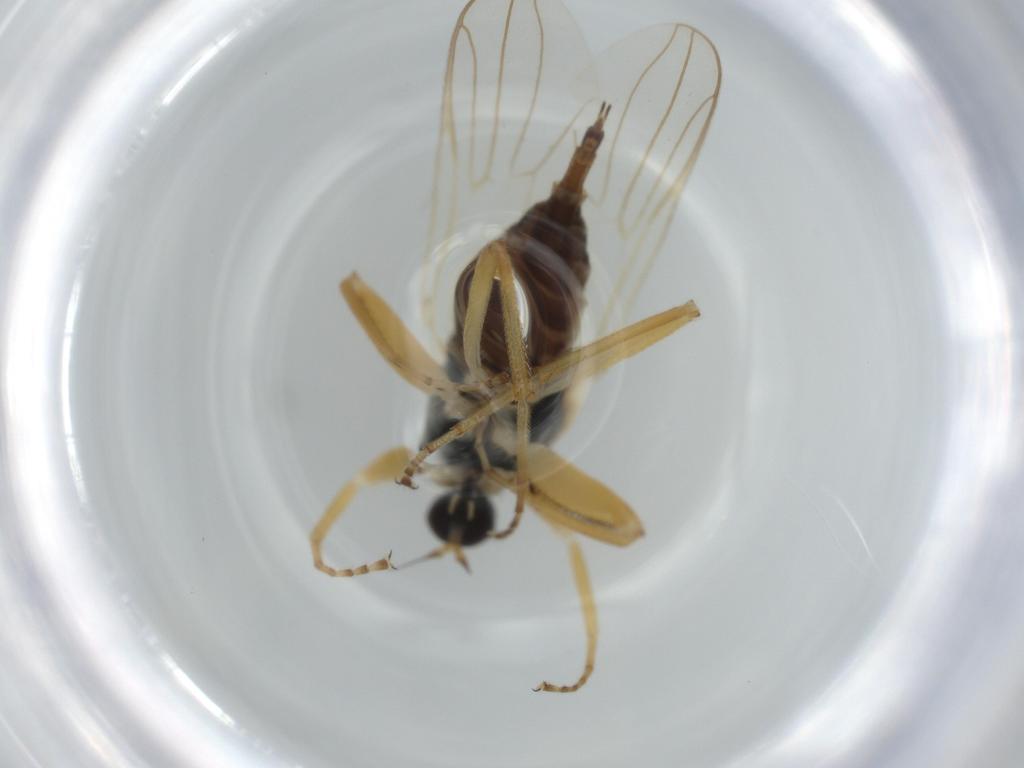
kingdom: Animalia
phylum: Arthropoda
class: Insecta
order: Diptera
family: Hybotidae
